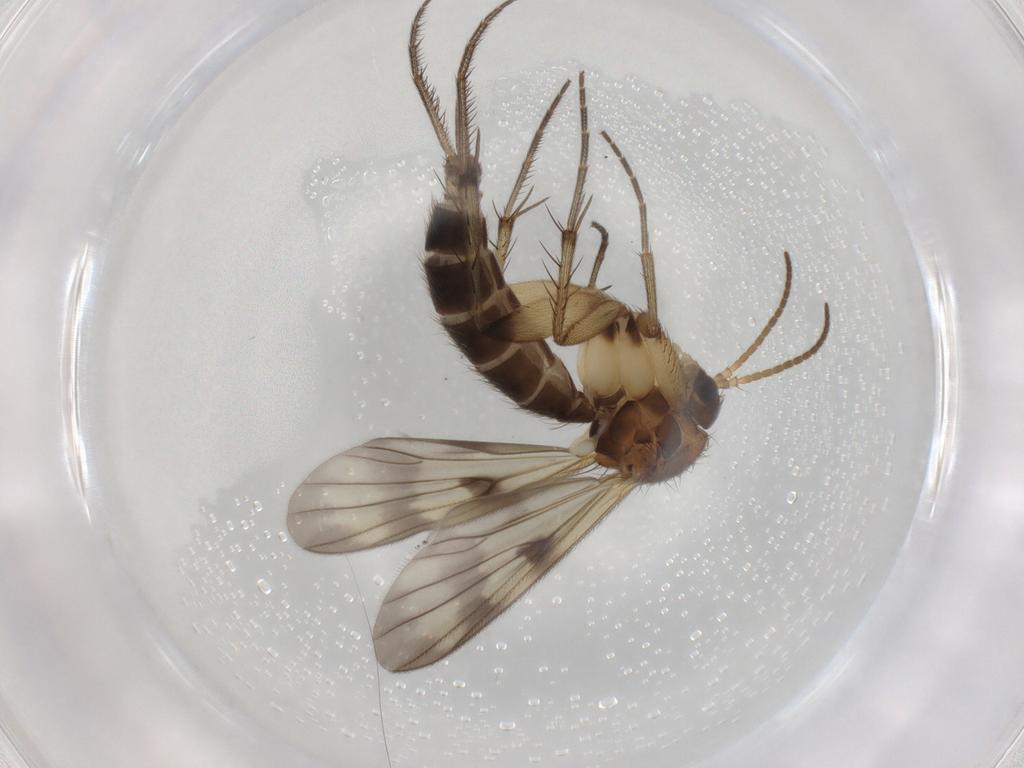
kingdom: Animalia
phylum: Arthropoda
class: Insecta
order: Diptera
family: Mycetophilidae
